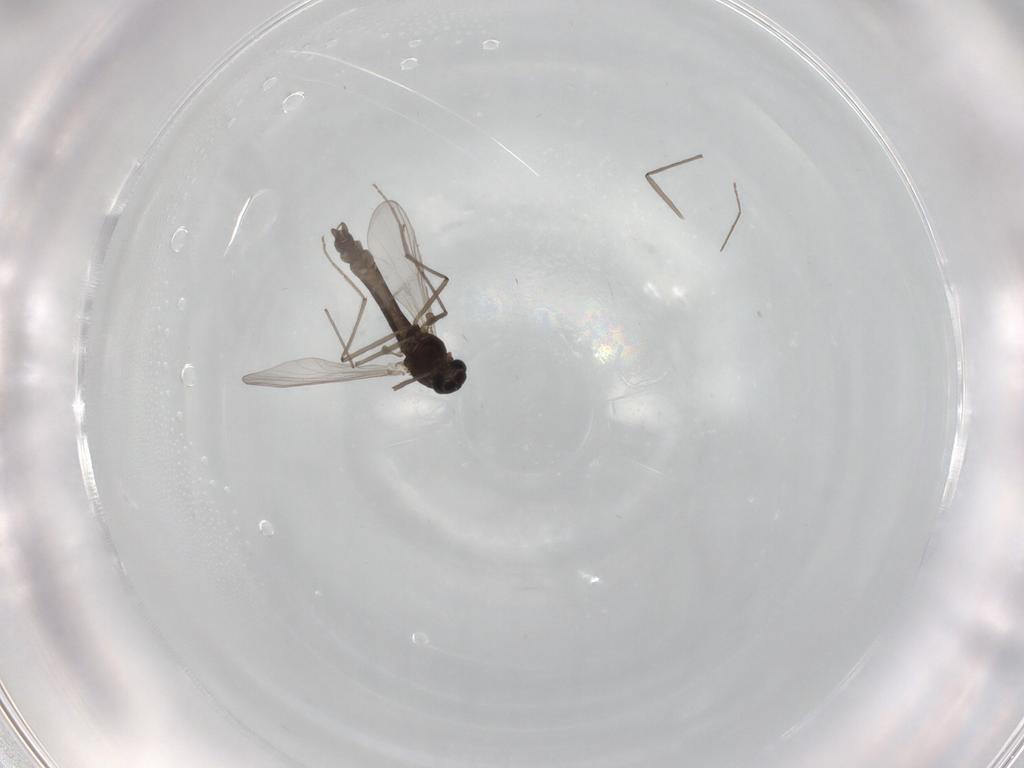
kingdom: Animalia
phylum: Arthropoda
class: Insecta
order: Diptera
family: Chironomidae
